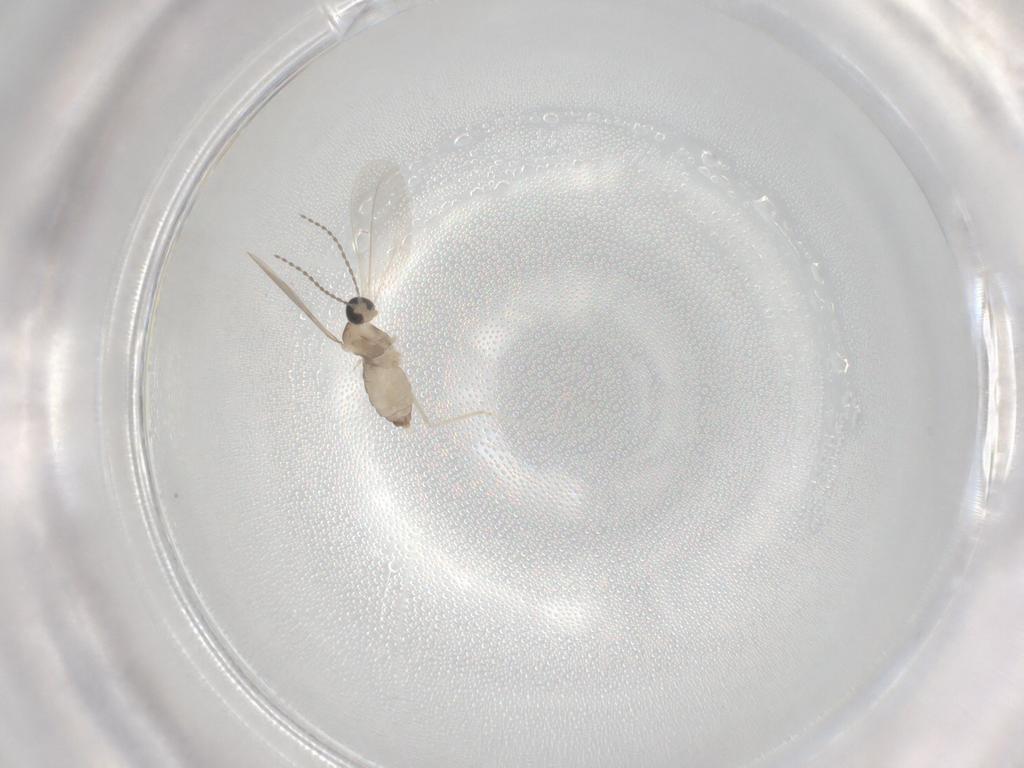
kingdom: Animalia
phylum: Arthropoda
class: Insecta
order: Diptera
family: Cecidomyiidae
